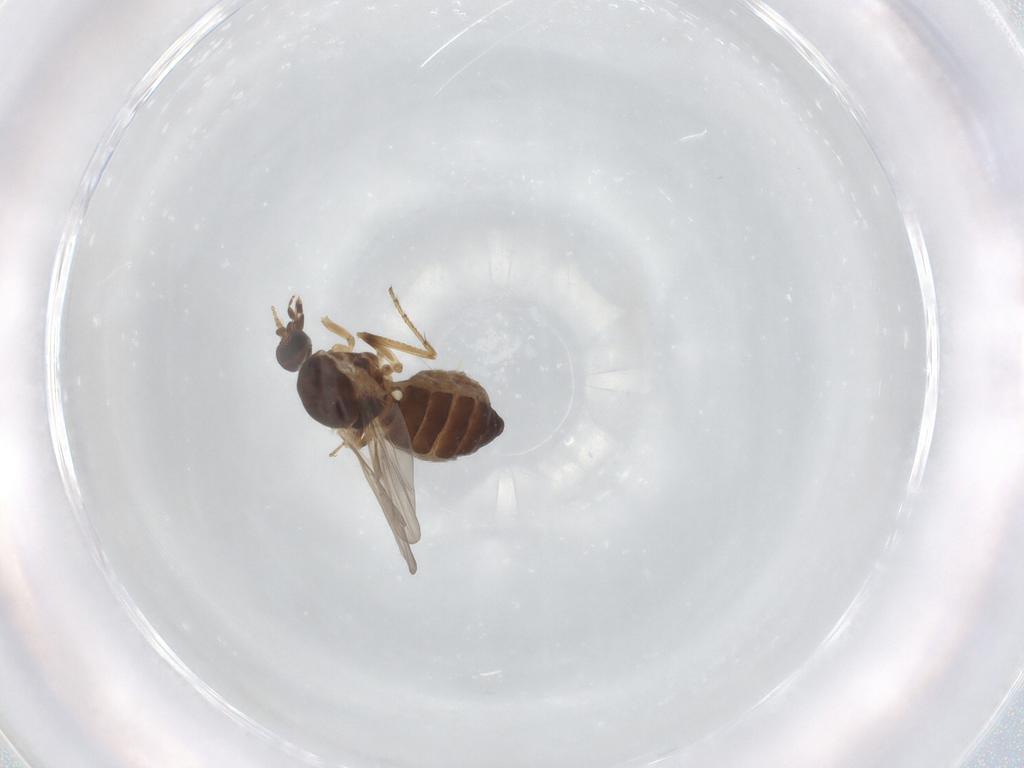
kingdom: Animalia
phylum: Arthropoda
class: Insecta
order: Diptera
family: Ceratopogonidae
